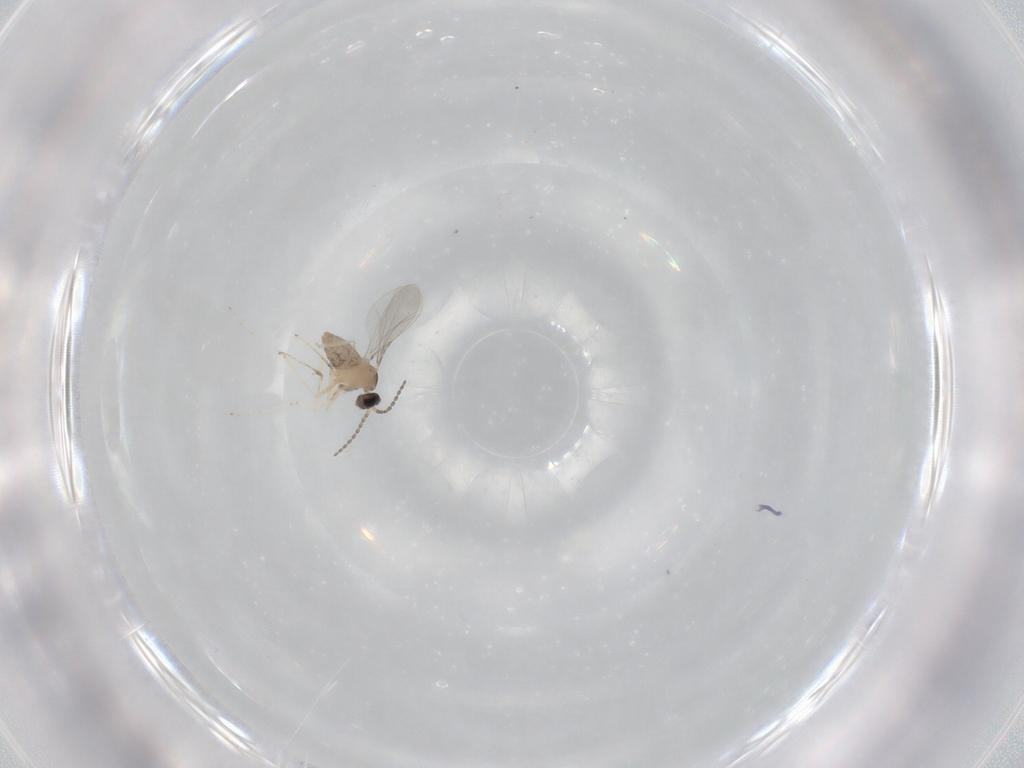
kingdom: Animalia
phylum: Arthropoda
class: Insecta
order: Diptera
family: Cecidomyiidae
